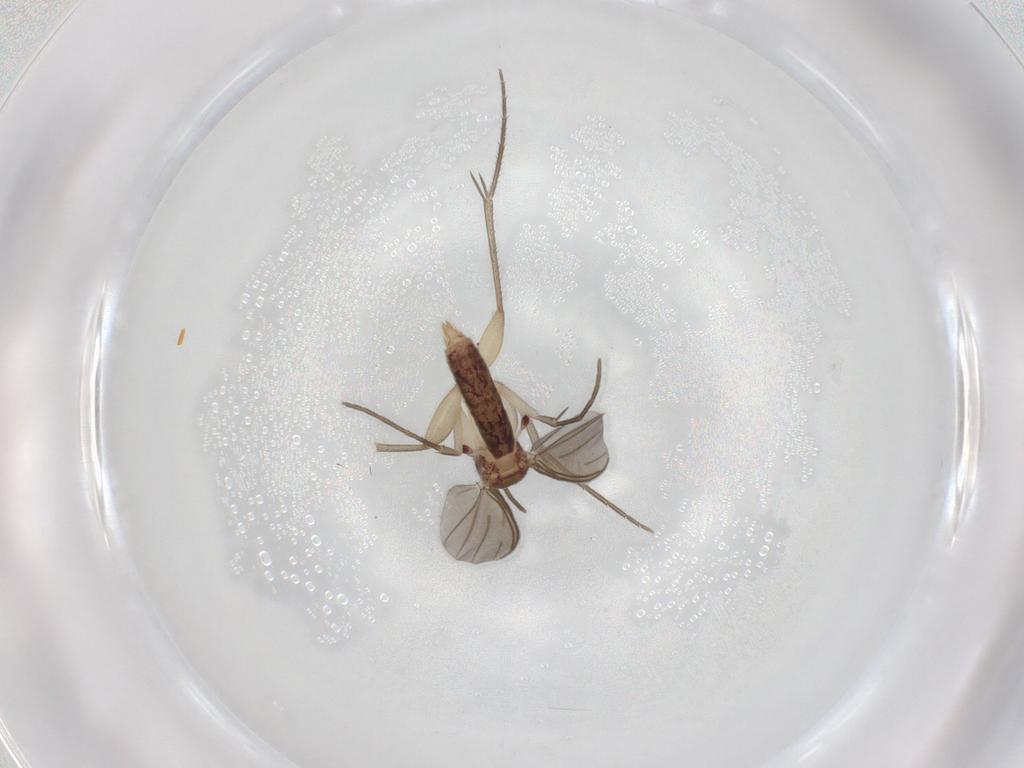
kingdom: Animalia
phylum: Arthropoda
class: Insecta
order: Diptera
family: Mycetophilidae
